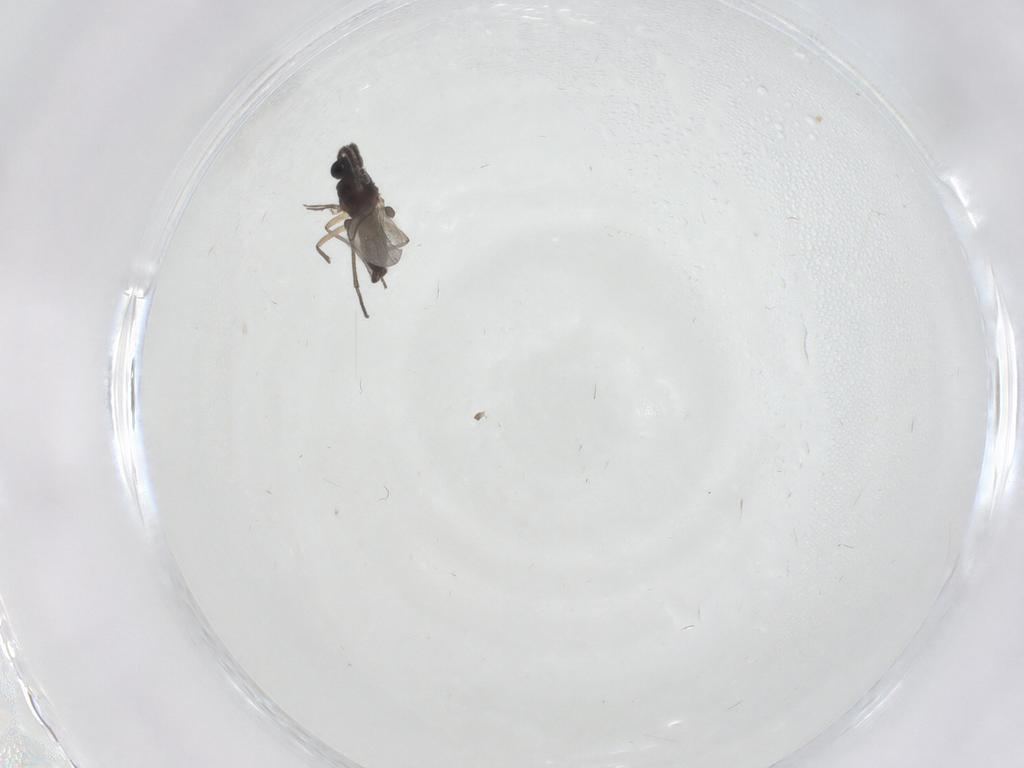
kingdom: Animalia
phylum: Arthropoda
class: Insecta
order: Diptera
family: Sciaridae
